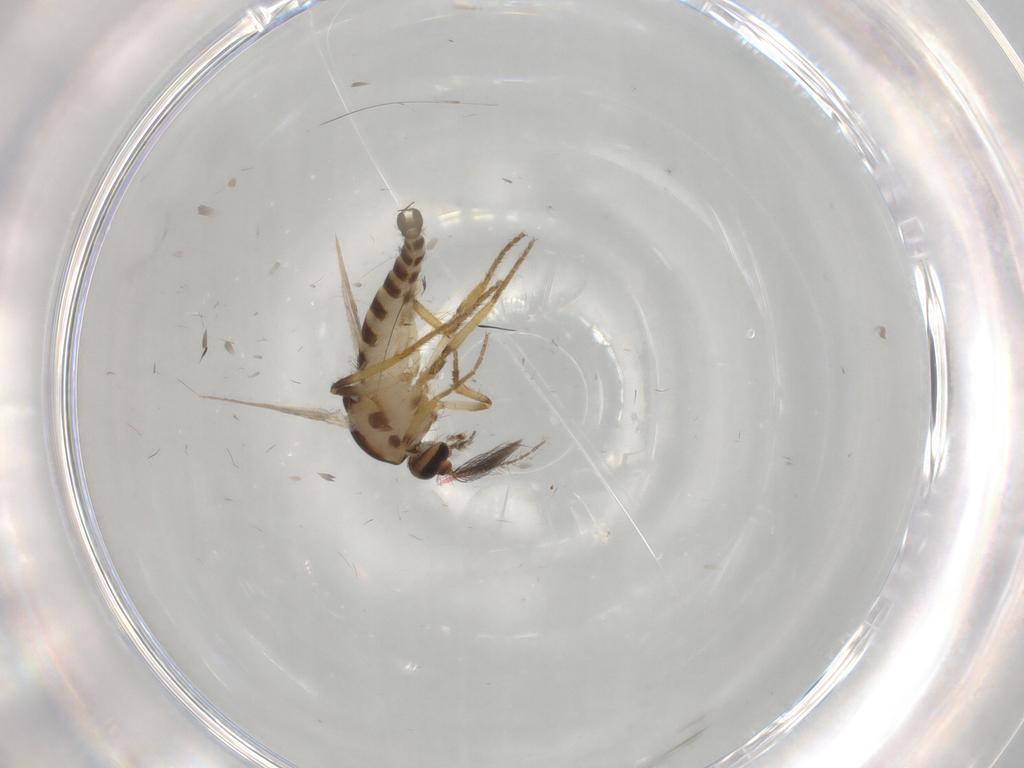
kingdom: Animalia
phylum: Arthropoda
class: Insecta
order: Diptera
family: Ceratopogonidae
